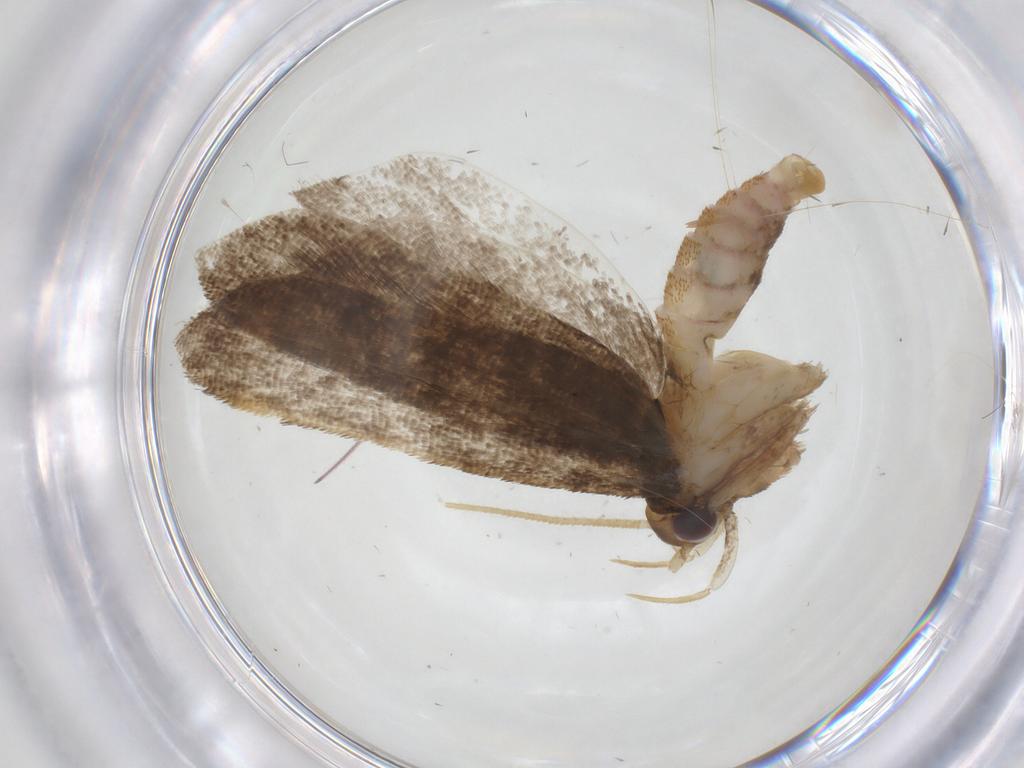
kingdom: Animalia
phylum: Arthropoda
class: Insecta
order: Lepidoptera
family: Lecithoceridae
